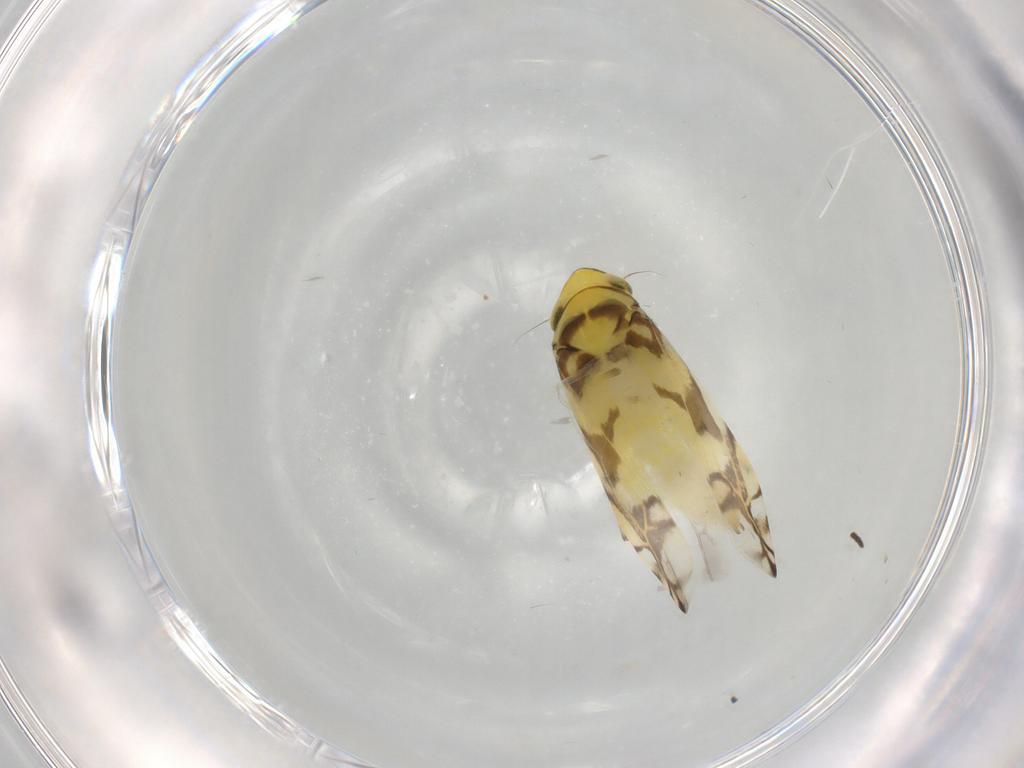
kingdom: Animalia
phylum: Arthropoda
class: Insecta
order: Hemiptera
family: Cicadellidae
